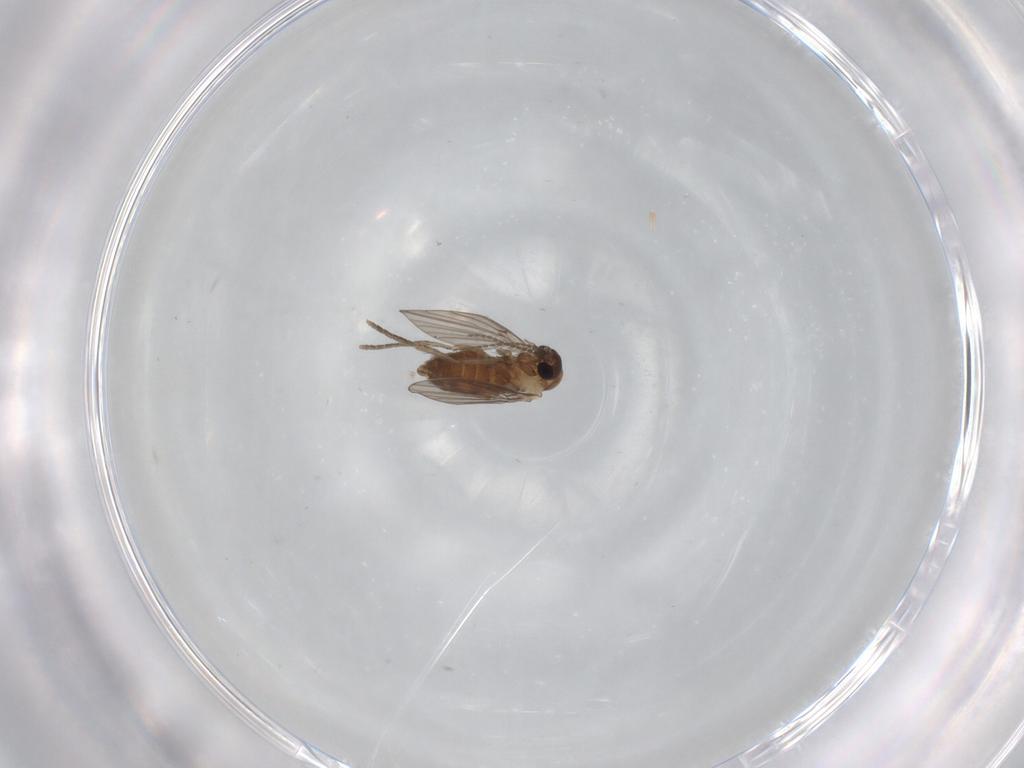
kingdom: Animalia
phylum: Arthropoda
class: Insecta
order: Diptera
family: Psychodidae
